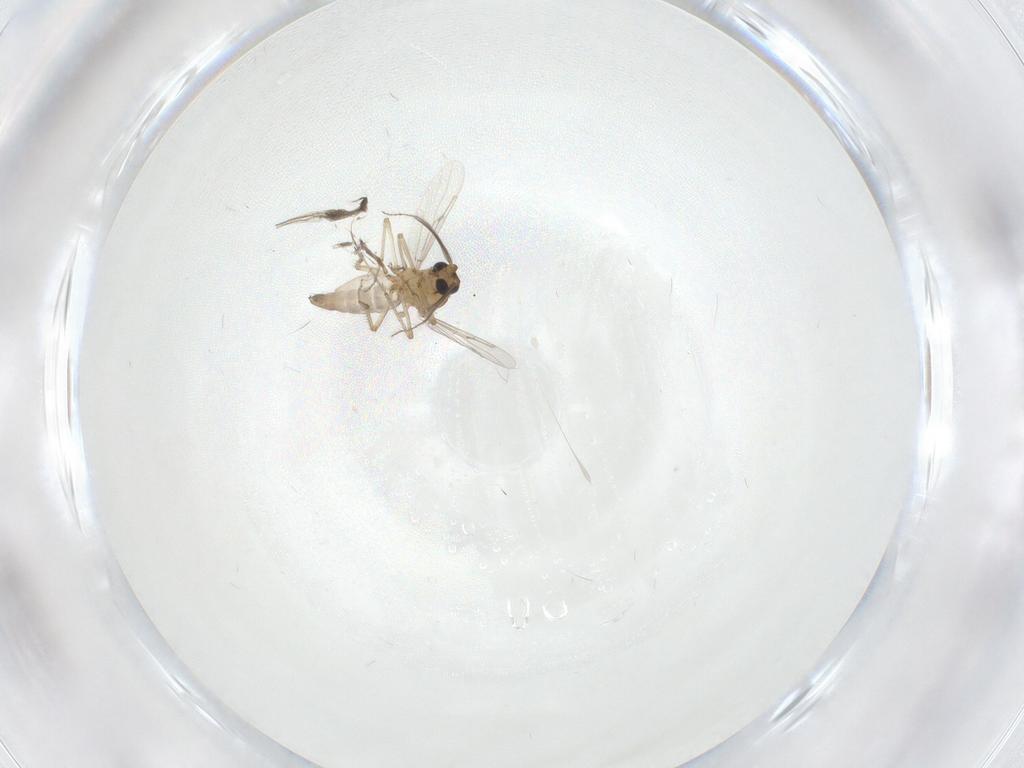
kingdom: Animalia
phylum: Arthropoda
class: Insecta
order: Diptera
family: Ceratopogonidae
